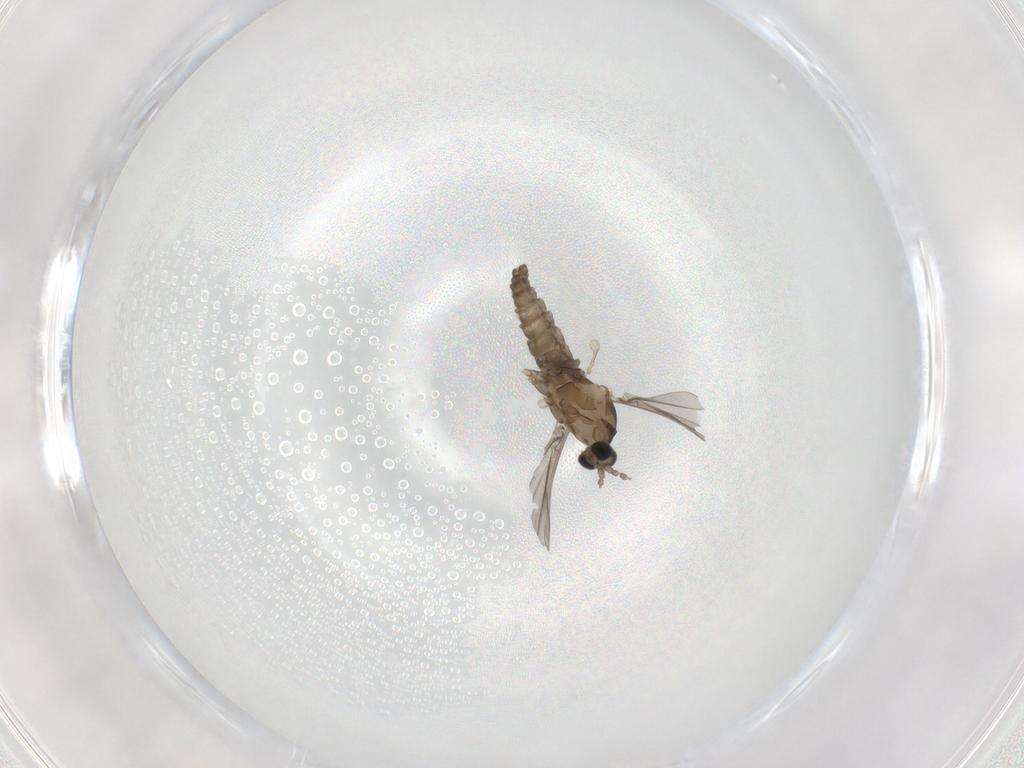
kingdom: Animalia
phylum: Arthropoda
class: Insecta
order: Diptera
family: Cecidomyiidae
